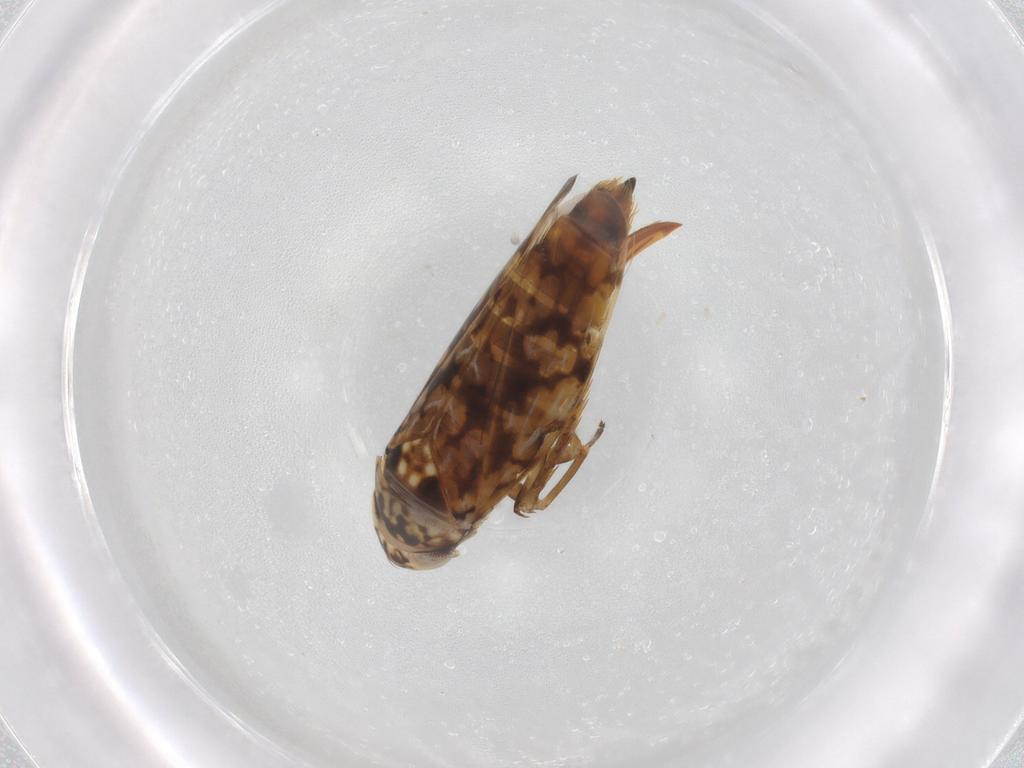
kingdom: Animalia
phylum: Arthropoda
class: Insecta
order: Hemiptera
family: Cicadellidae
